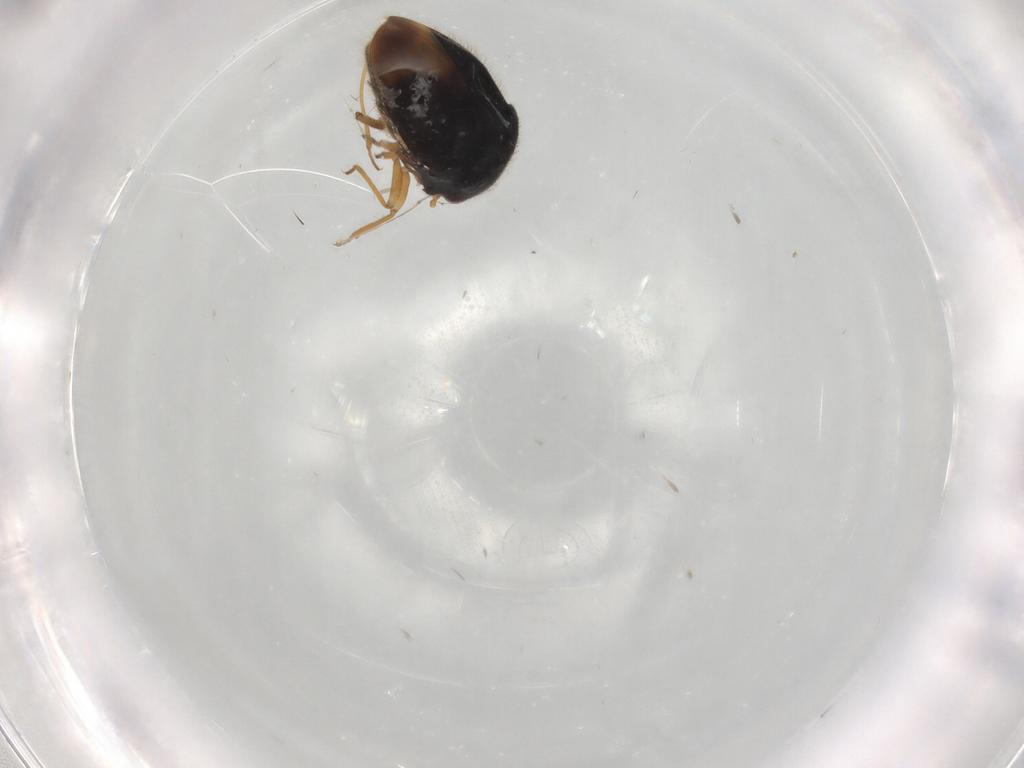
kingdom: Animalia
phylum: Arthropoda
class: Insecta
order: Hemiptera
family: Schizopteridae
